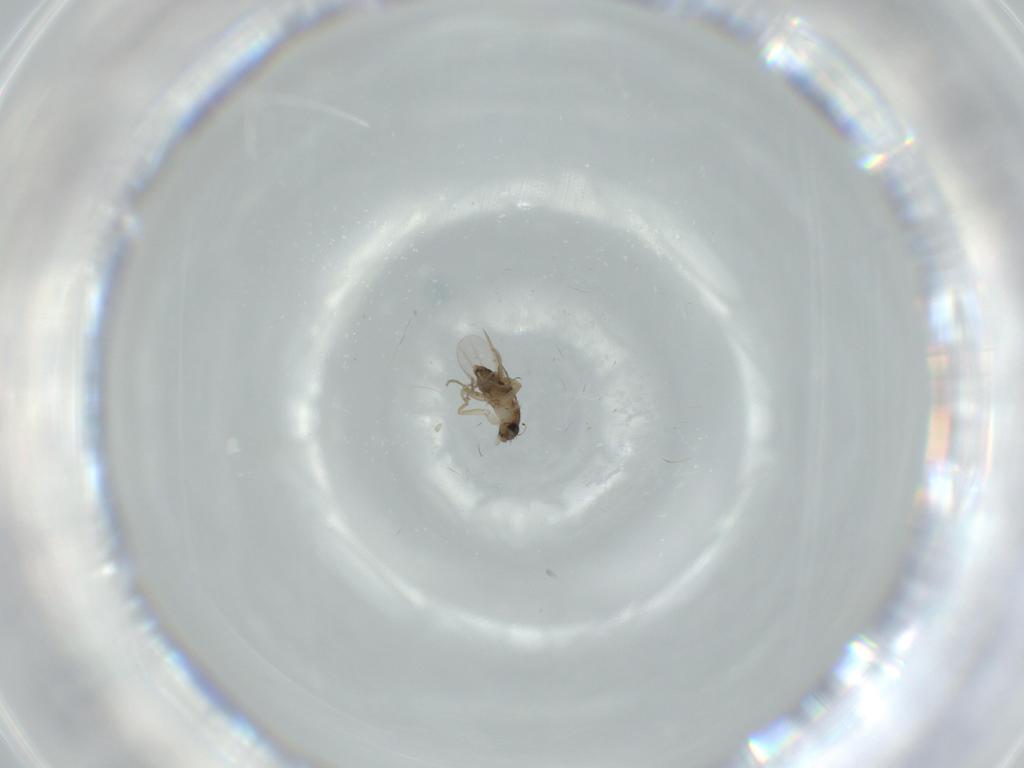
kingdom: Animalia
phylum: Arthropoda
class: Insecta
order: Diptera
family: Phoridae
